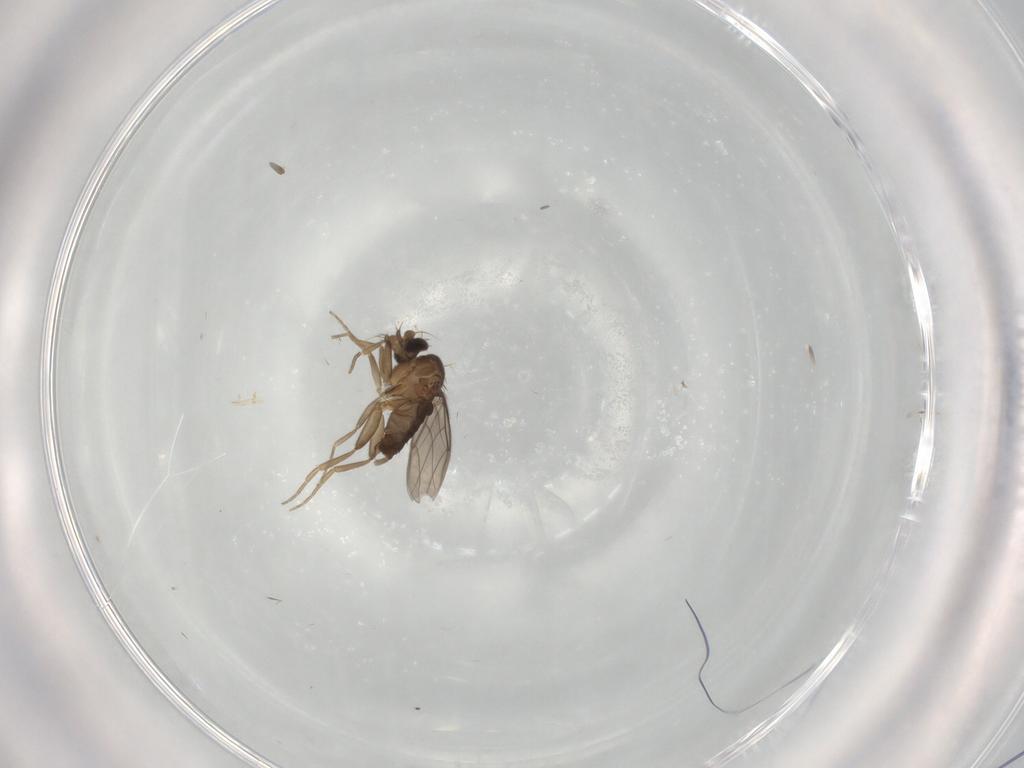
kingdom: Animalia
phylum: Arthropoda
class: Insecta
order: Diptera
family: Phoridae
